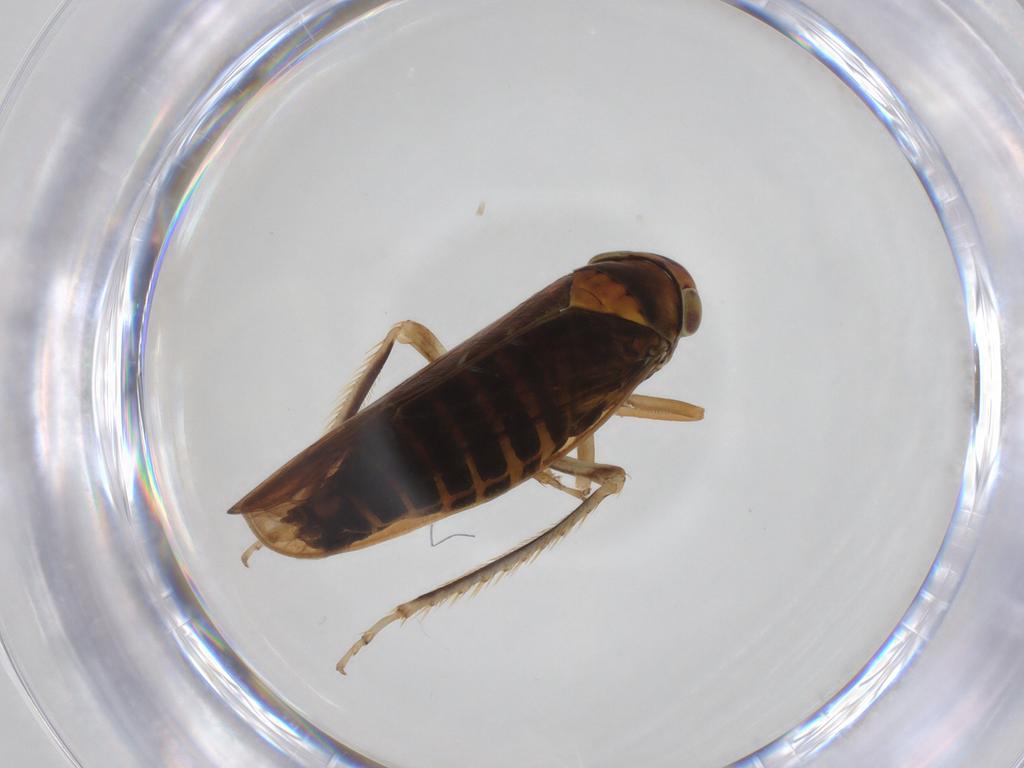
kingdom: Animalia
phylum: Arthropoda
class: Insecta
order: Hemiptera
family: Cicadellidae
